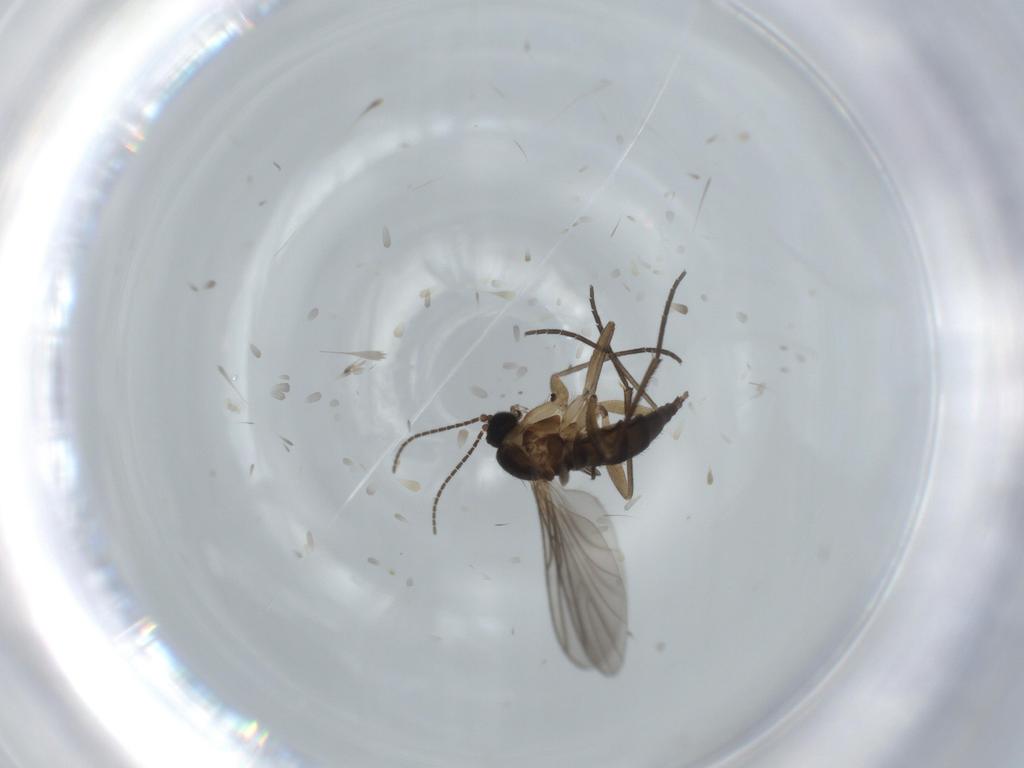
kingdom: Animalia
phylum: Arthropoda
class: Insecta
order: Diptera
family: Sciaridae
